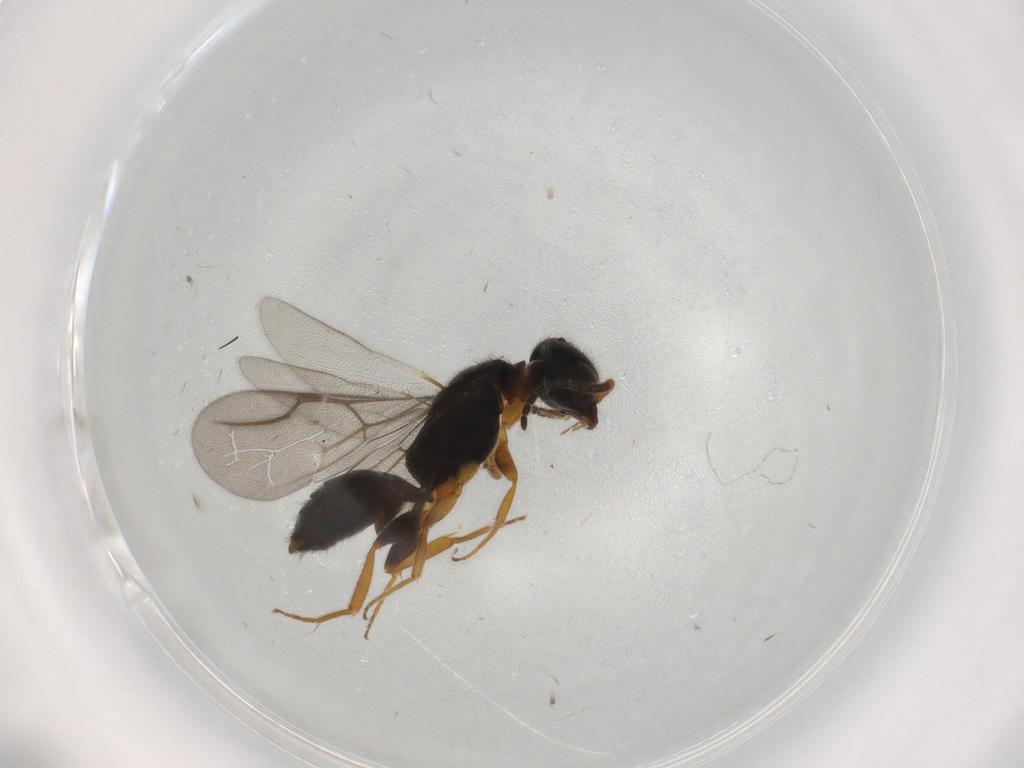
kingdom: Animalia
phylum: Arthropoda
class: Insecta
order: Hymenoptera
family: Bethylidae
